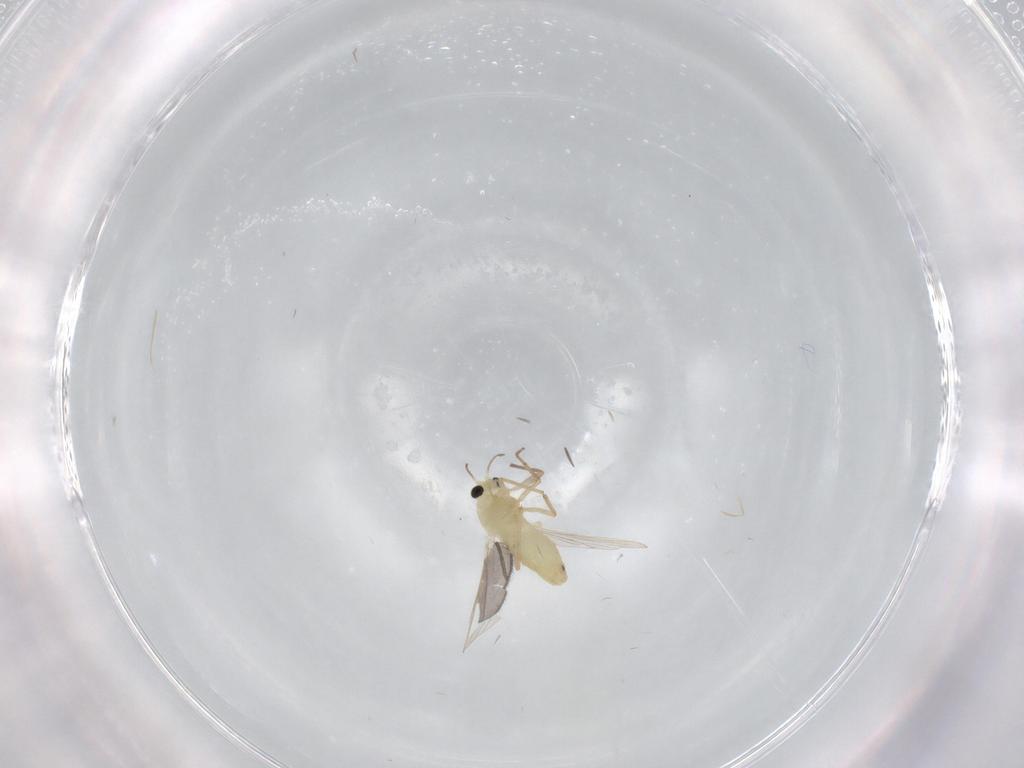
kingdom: Animalia
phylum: Arthropoda
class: Insecta
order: Diptera
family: Chironomidae
